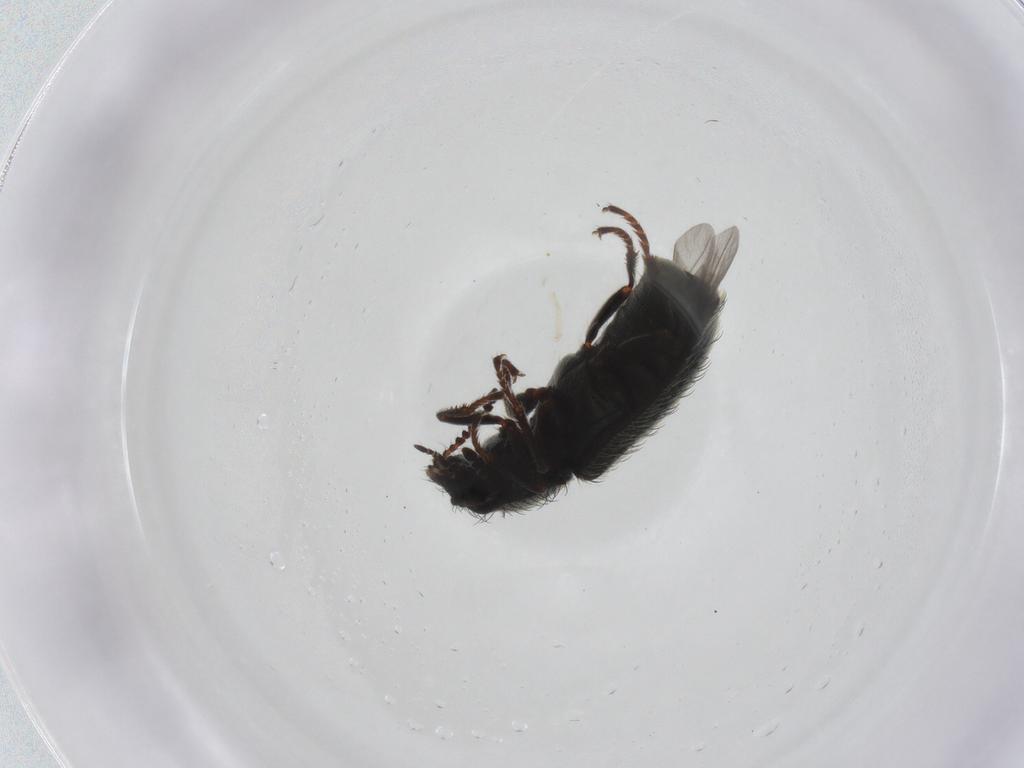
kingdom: Animalia
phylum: Arthropoda
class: Insecta
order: Coleoptera
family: Melyridae
